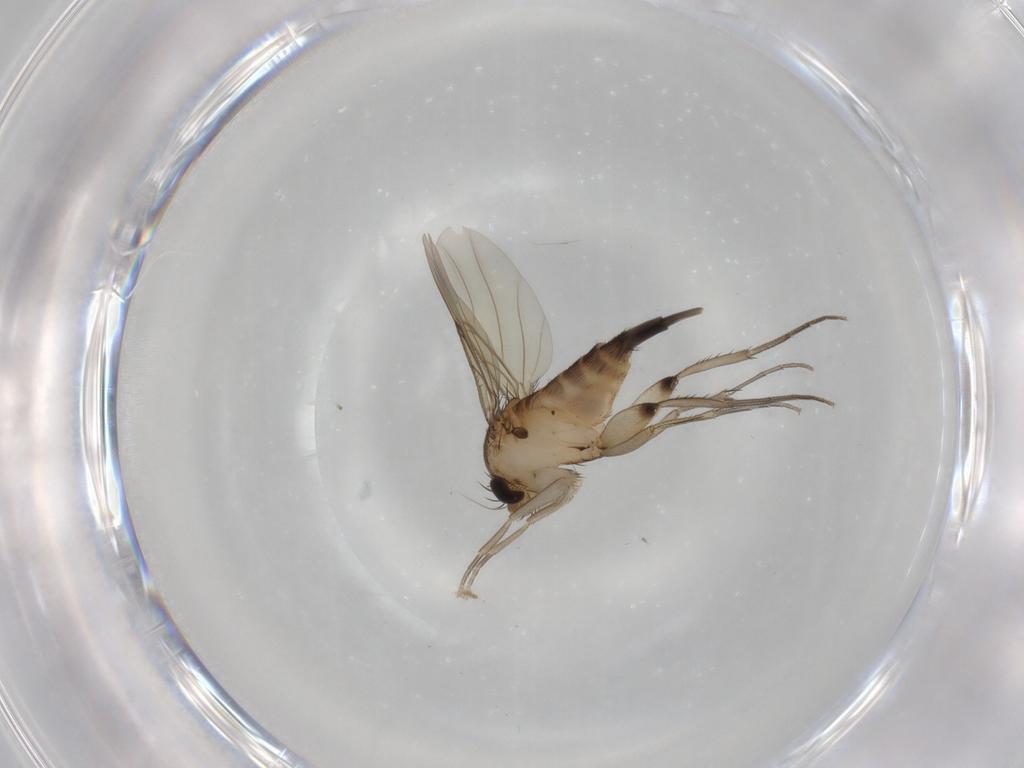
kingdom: Animalia
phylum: Arthropoda
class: Insecta
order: Diptera
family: Phoridae
